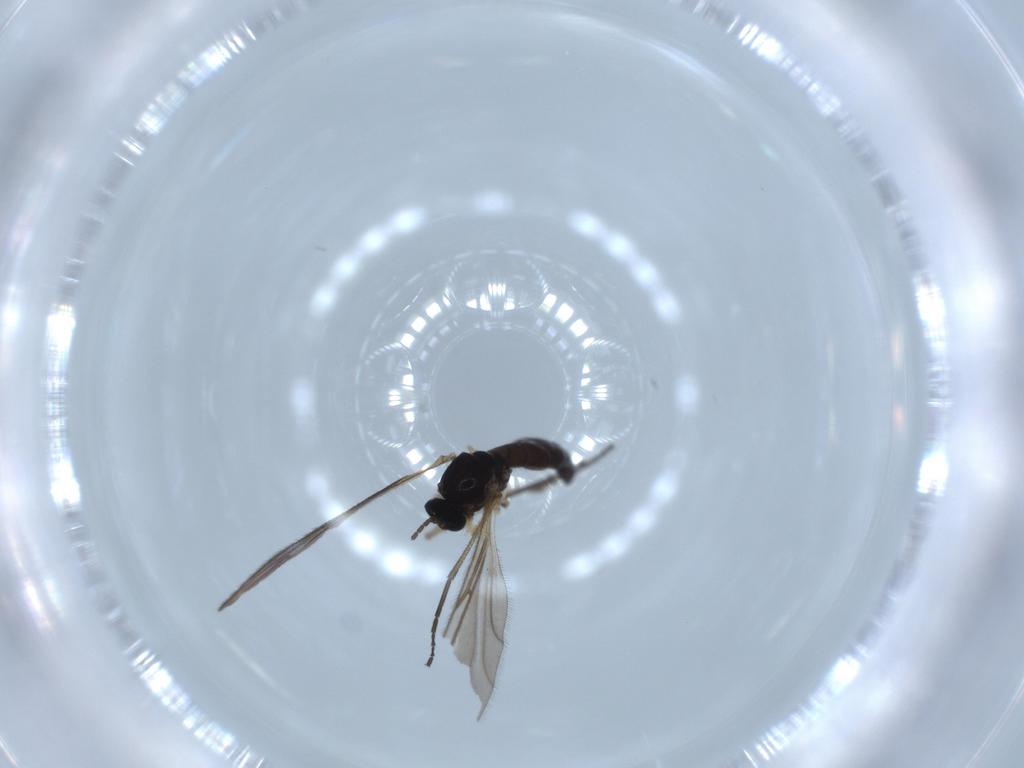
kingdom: Animalia
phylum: Arthropoda
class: Insecta
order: Diptera
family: Sciaridae
